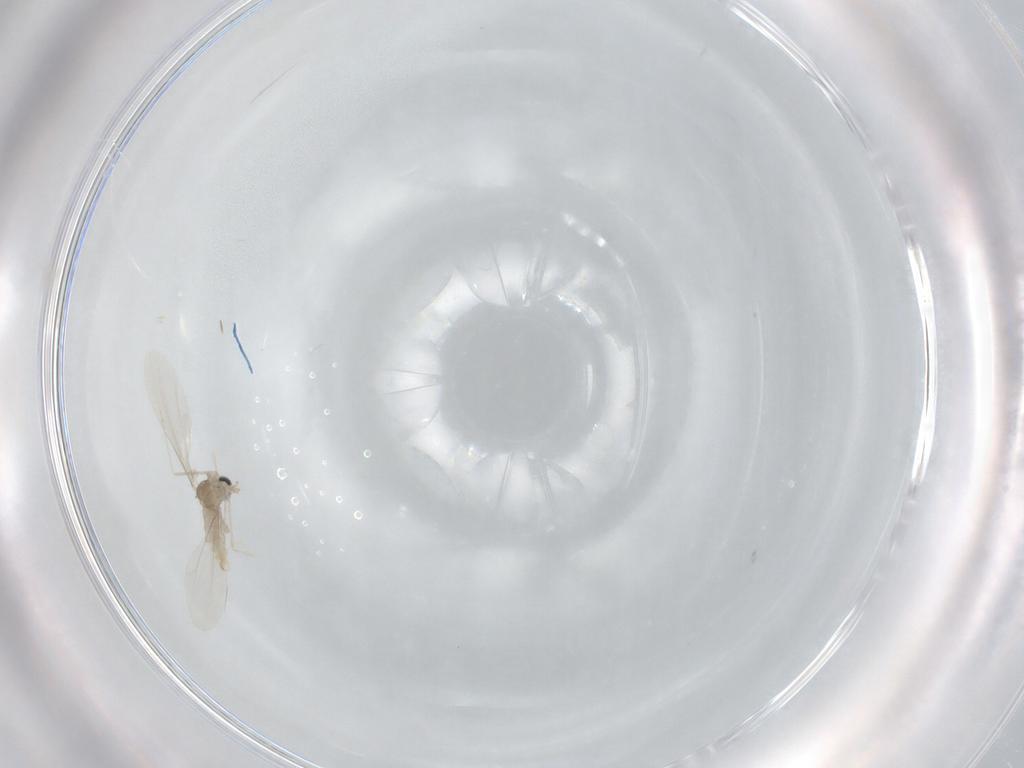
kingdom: Animalia
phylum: Arthropoda
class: Insecta
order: Diptera
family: Cecidomyiidae
